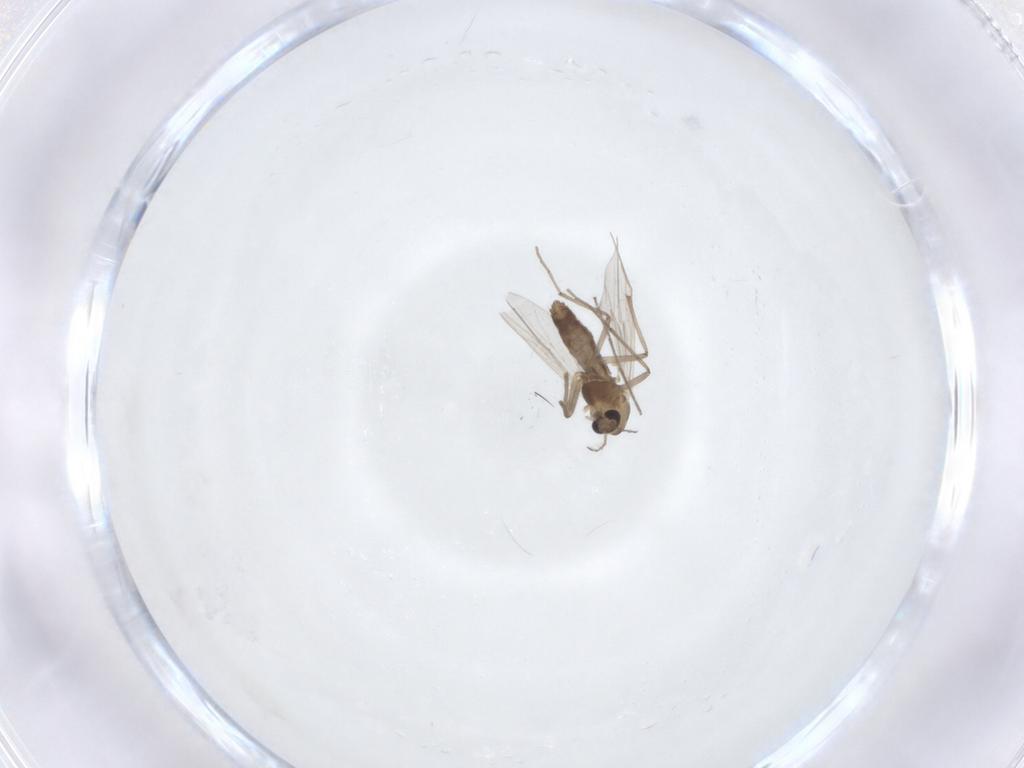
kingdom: Animalia
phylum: Arthropoda
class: Insecta
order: Diptera
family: Chironomidae
